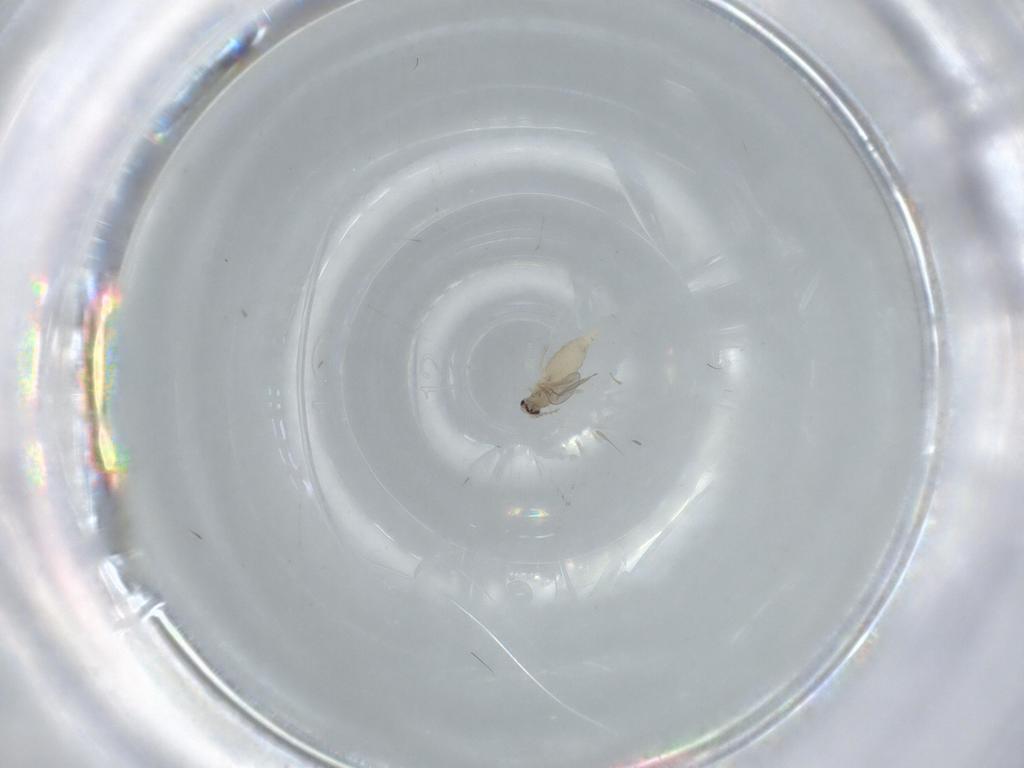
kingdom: Animalia
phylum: Arthropoda
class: Insecta
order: Diptera
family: Cecidomyiidae
